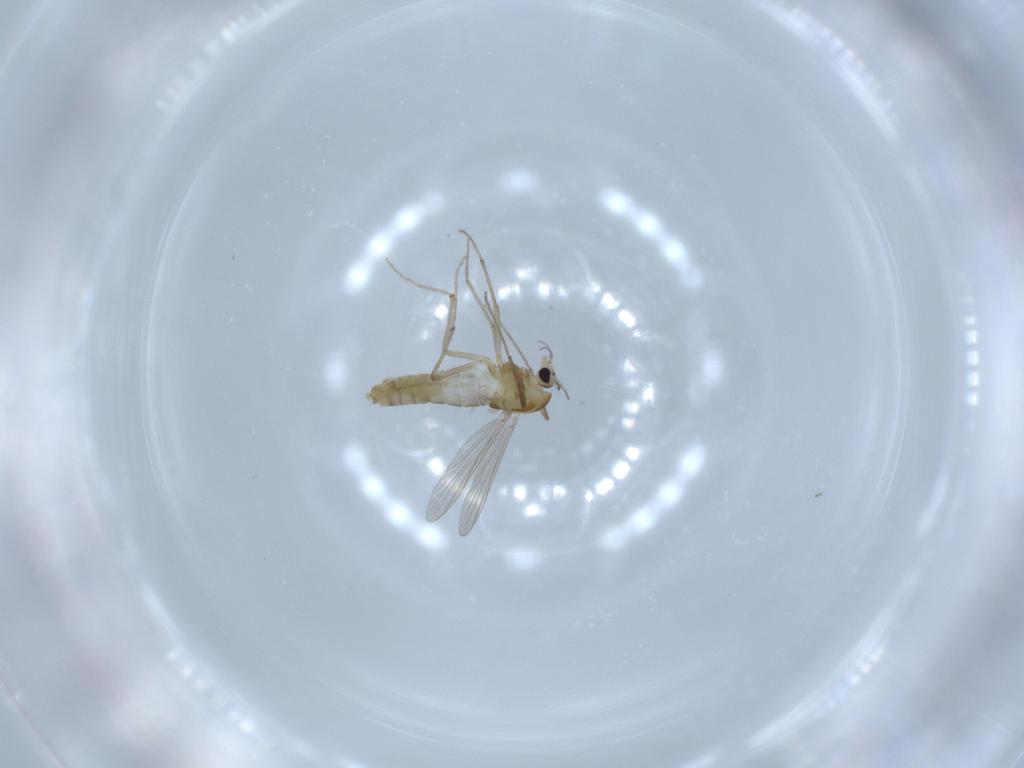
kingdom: Animalia
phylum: Arthropoda
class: Insecta
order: Diptera
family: Chironomidae
